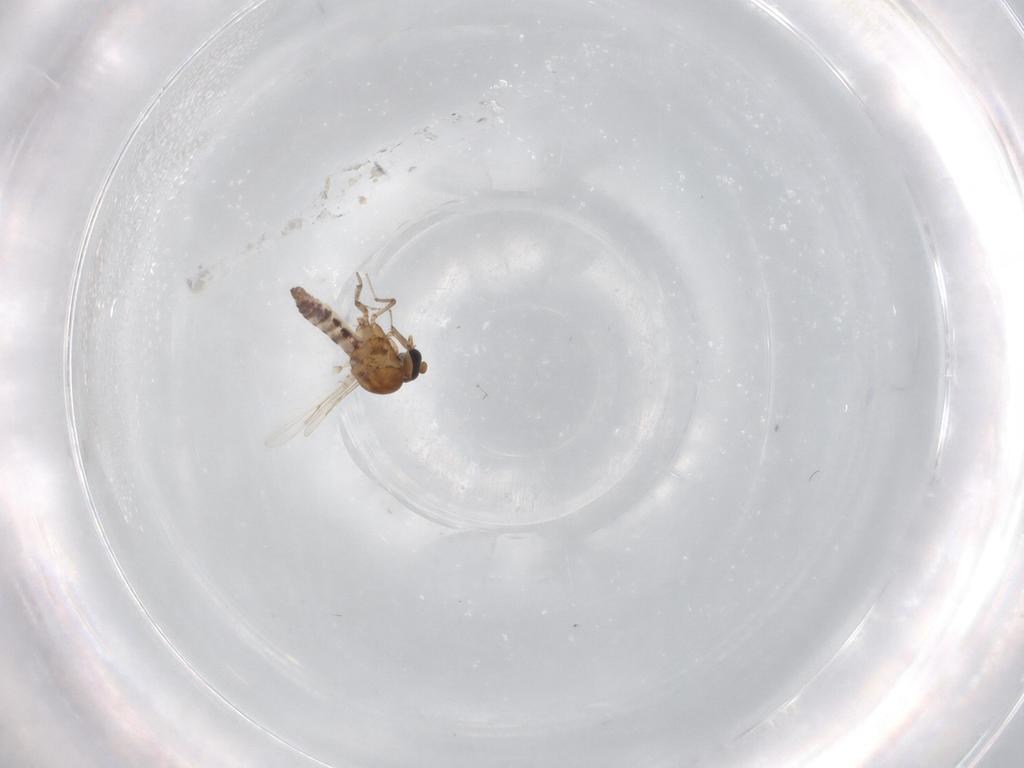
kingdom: Animalia
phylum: Arthropoda
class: Insecta
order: Diptera
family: Ceratopogonidae
